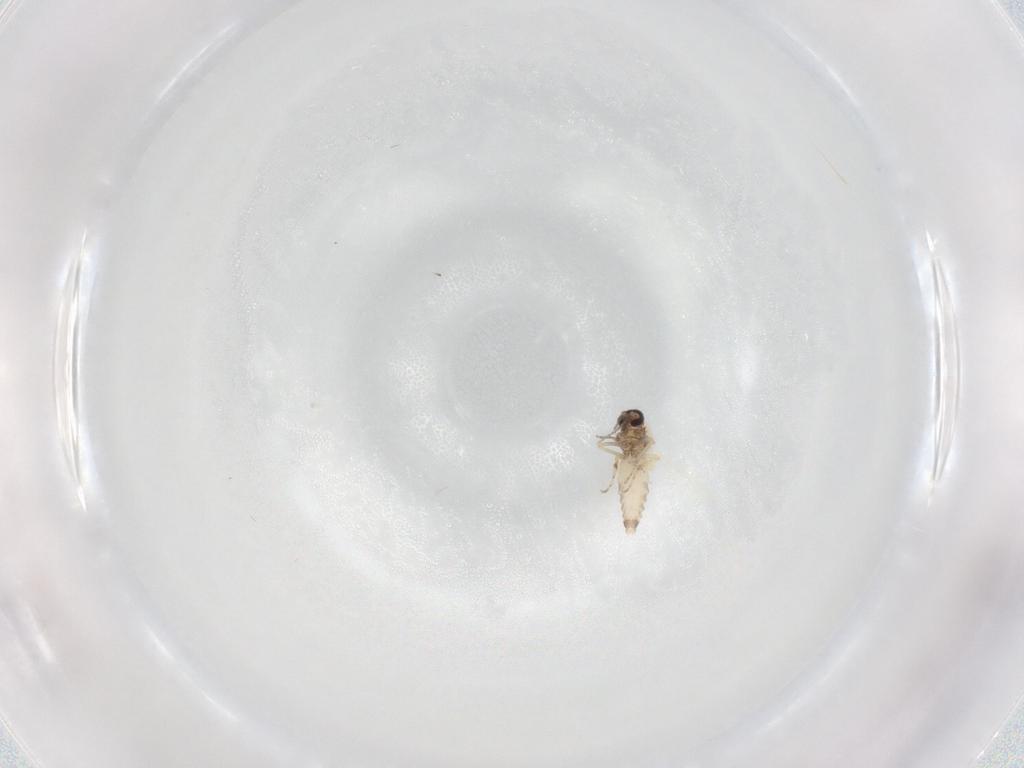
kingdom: Animalia
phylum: Arthropoda
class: Insecta
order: Diptera
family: Ceratopogonidae
